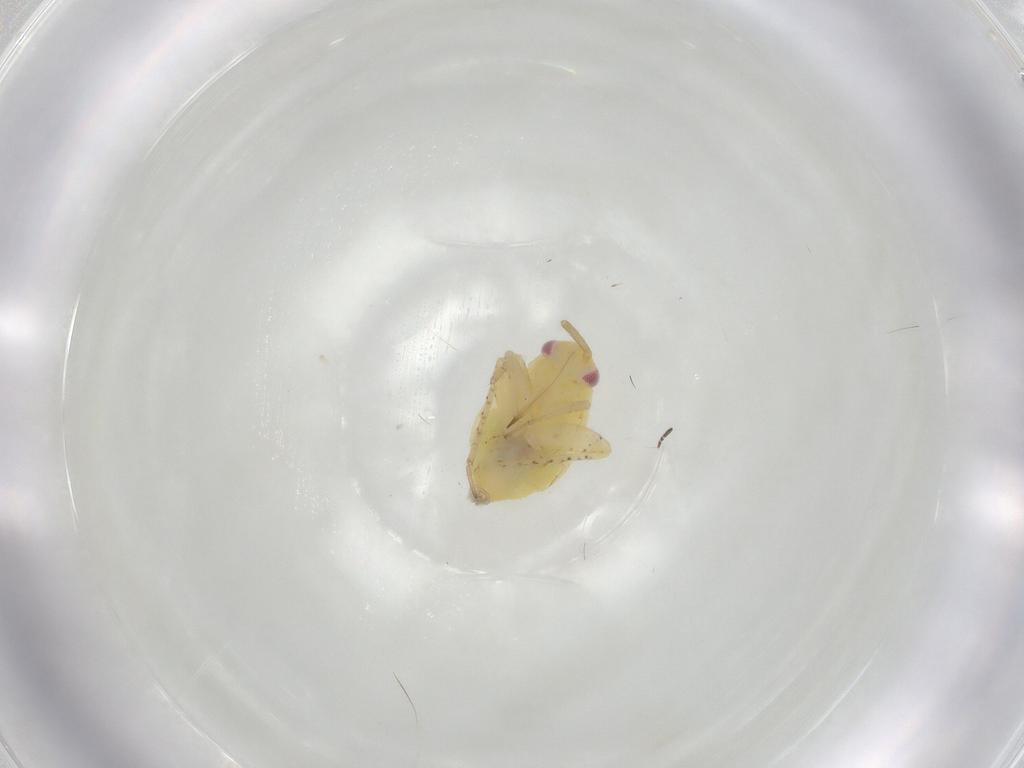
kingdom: Animalia
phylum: Arthropoda
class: Insecta
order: Hemiptera
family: Miridae
